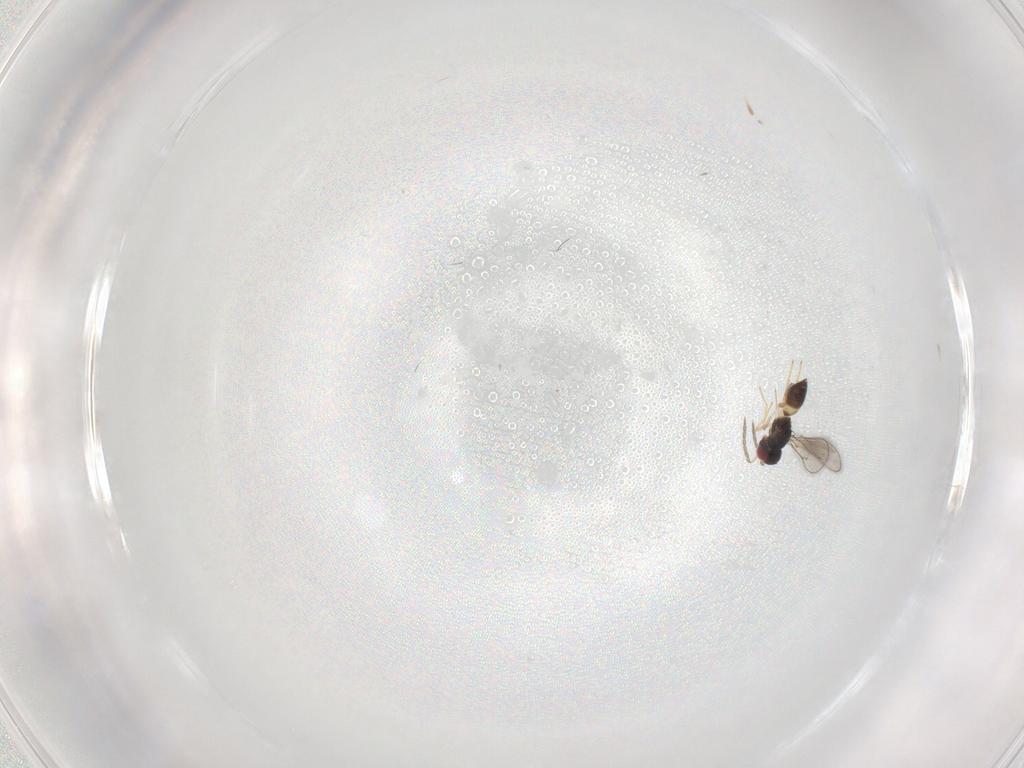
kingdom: Animalia
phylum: Arthropoda
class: Insecta
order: Hymenoptera
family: Eulophidae
